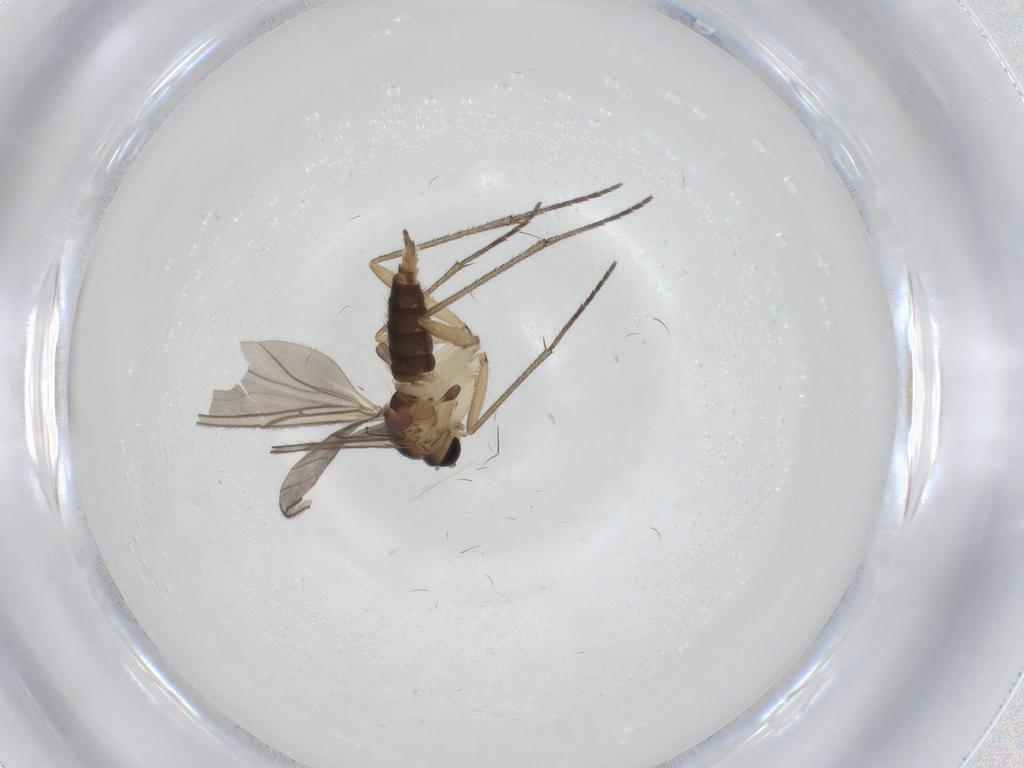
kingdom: Animalia
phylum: Arthropoda
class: Insecta
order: Diptera
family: Sciaridae
